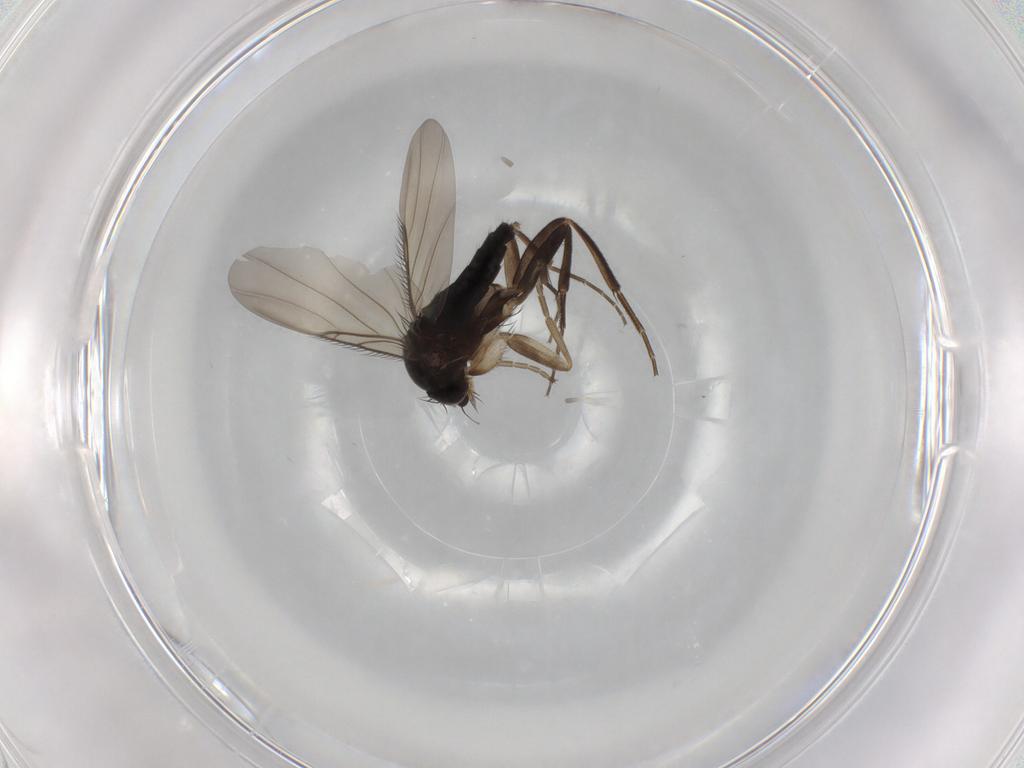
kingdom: Animalia
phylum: Arthropoda
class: Insecta
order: Diptera
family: Phoridae
